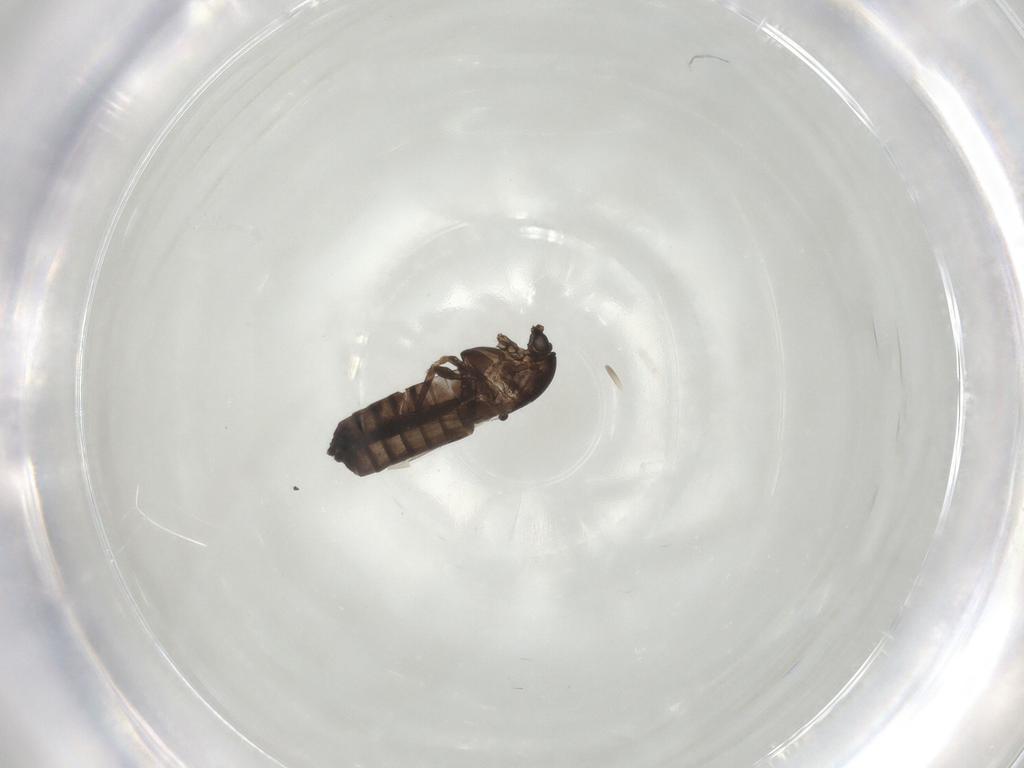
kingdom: Animalia
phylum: Arthropoda
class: Insecta
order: Diptera
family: Chironomidae
